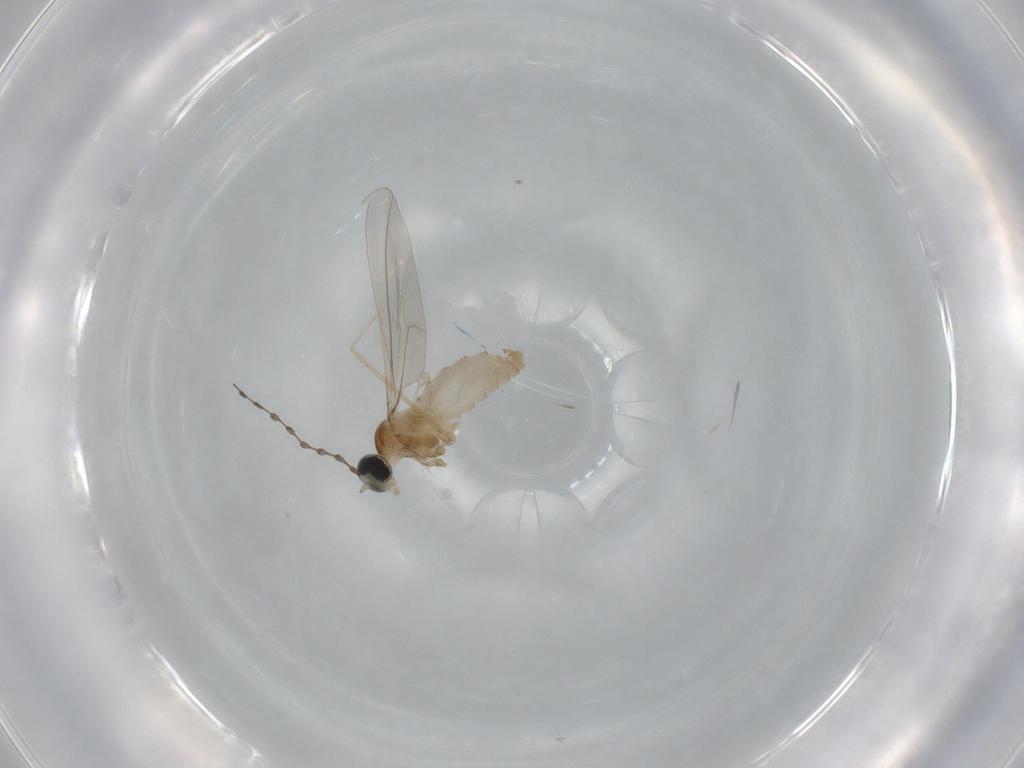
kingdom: Animalia
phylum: Arthropoda
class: Insecta
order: Diptera
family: Cecidomyiidae
